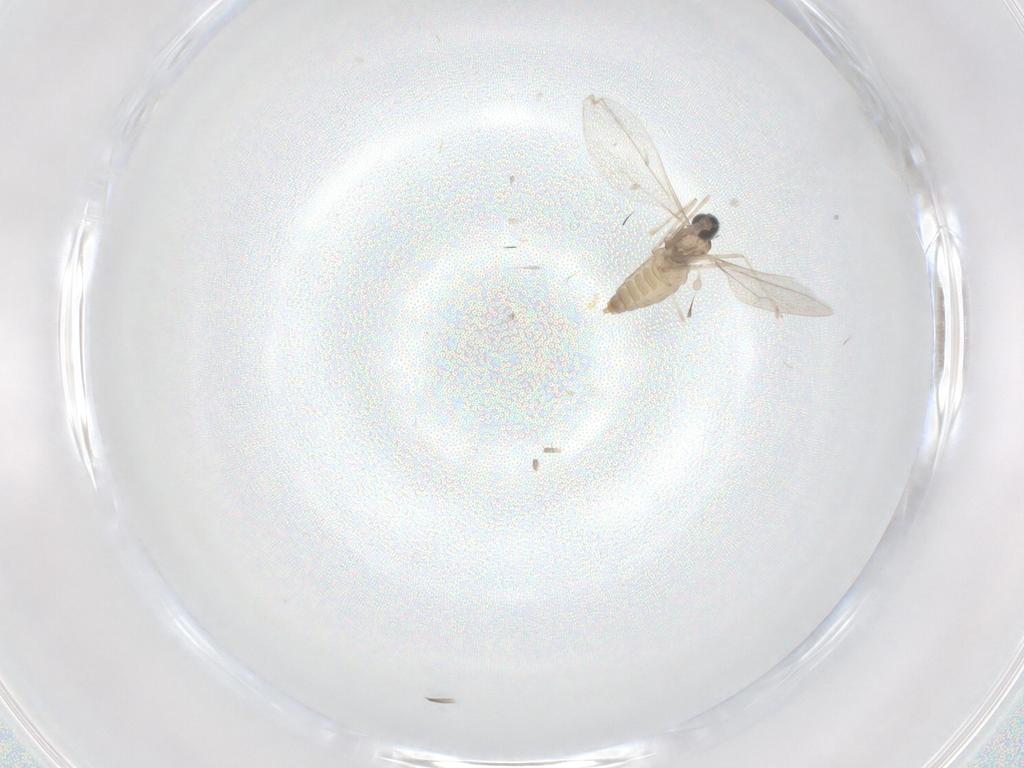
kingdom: Animalia
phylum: Arthropoda
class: Insecta
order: Diptera
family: Cecidomyiidae
